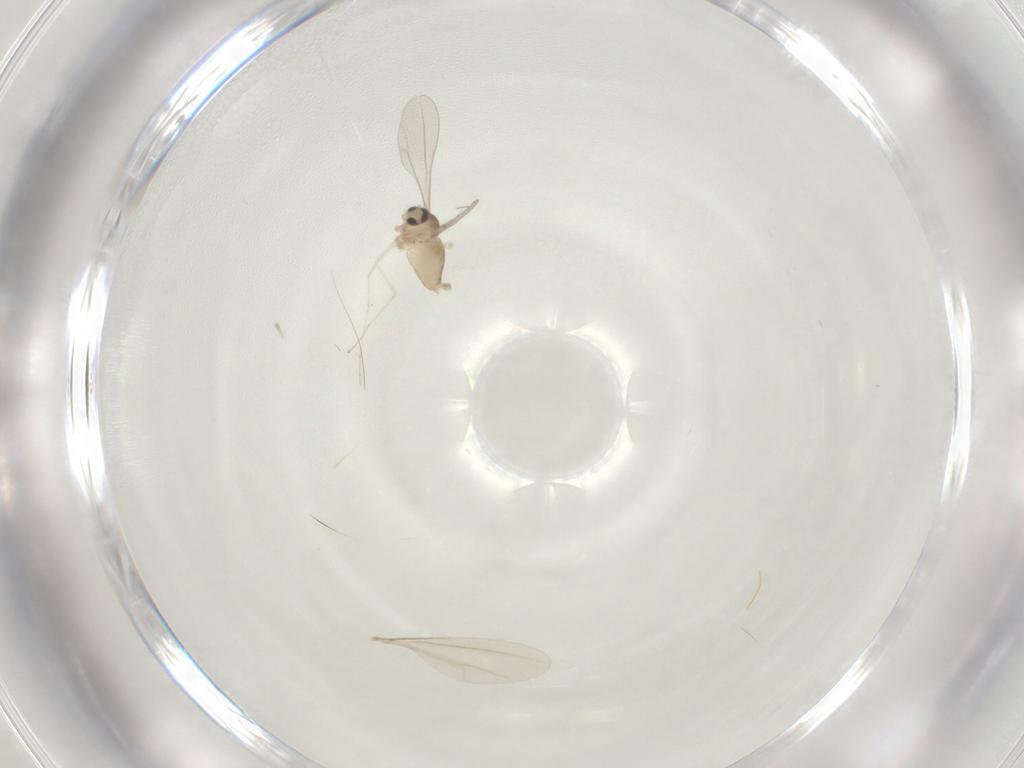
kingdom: Animalia
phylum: Arthropoda
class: Insecta
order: Diptera
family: Cecidomyiidae
